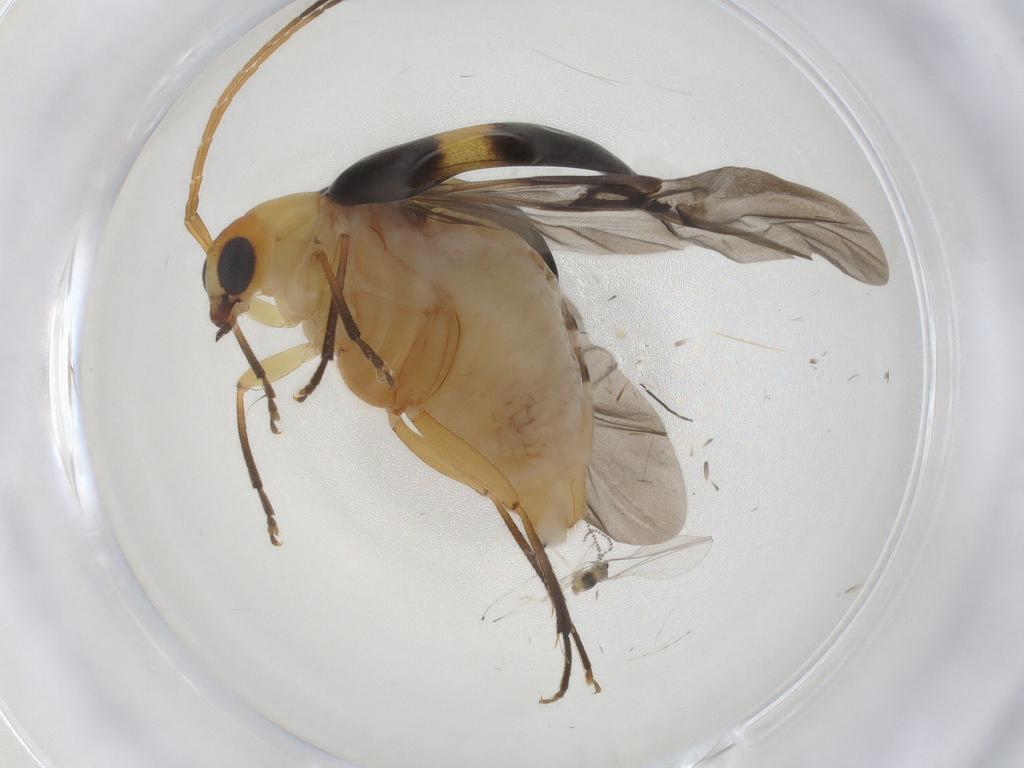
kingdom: Animalia
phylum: Arthropoda
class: Insecta
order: Coleoptera
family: Chrysomelidae
